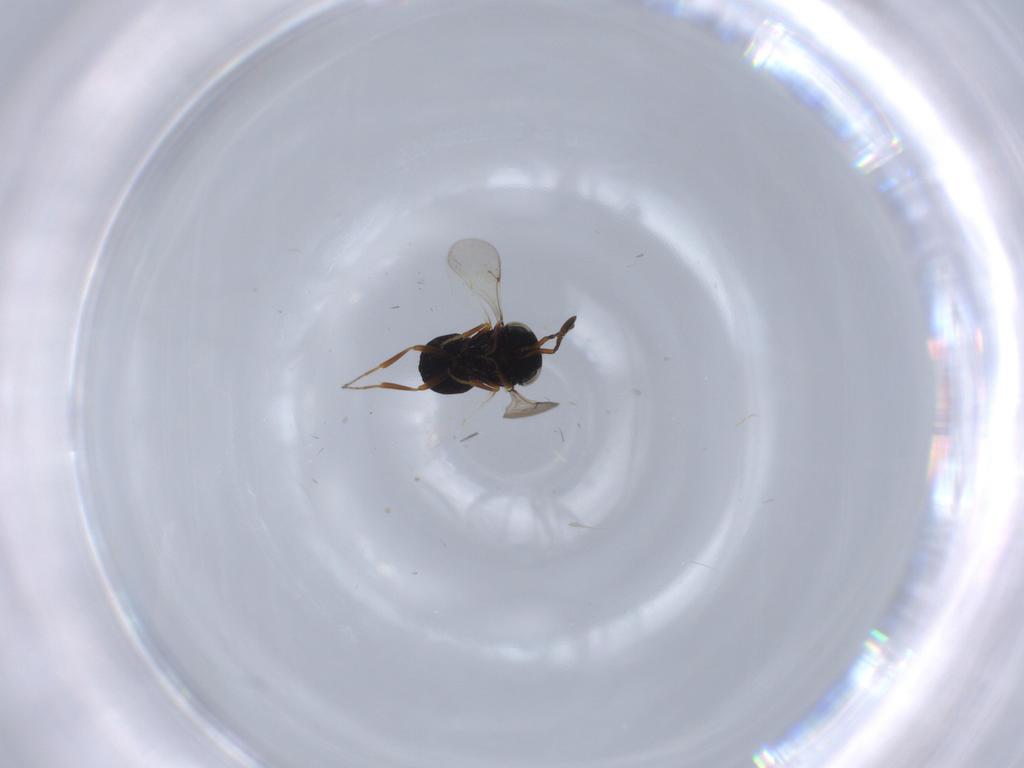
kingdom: Animalia
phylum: Arthropoda
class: Insecta
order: Hymenoptera
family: Scelionidae
